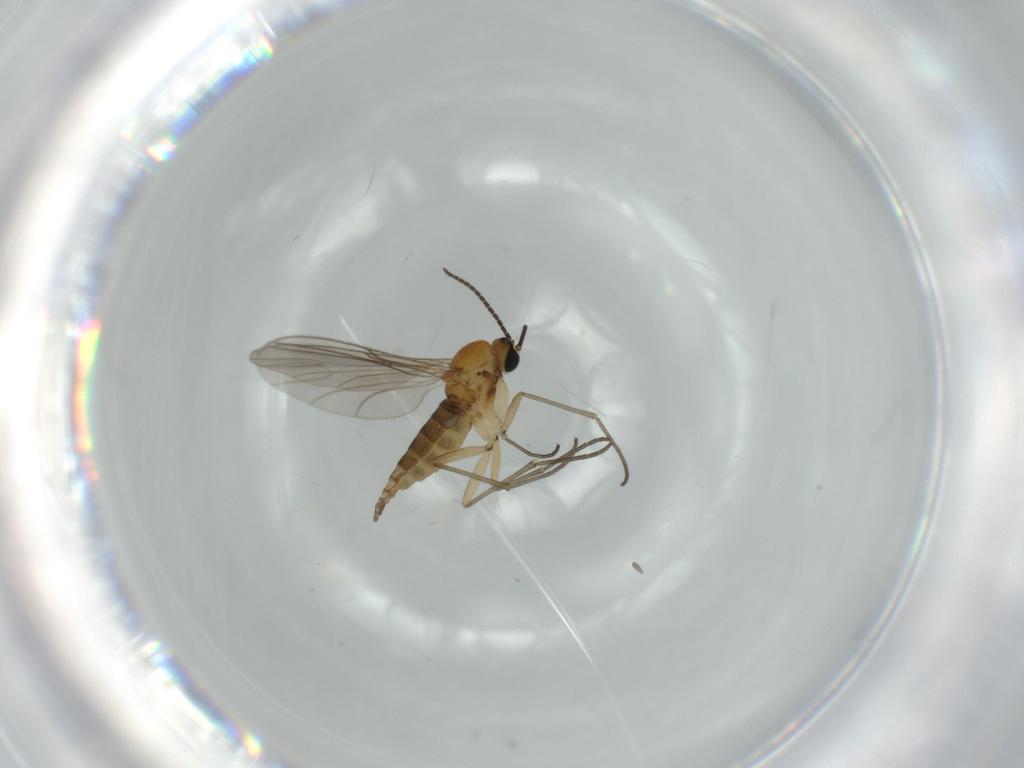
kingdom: Animalia
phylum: Arthropoda
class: Insecta
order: Diptera
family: Sciaridae
